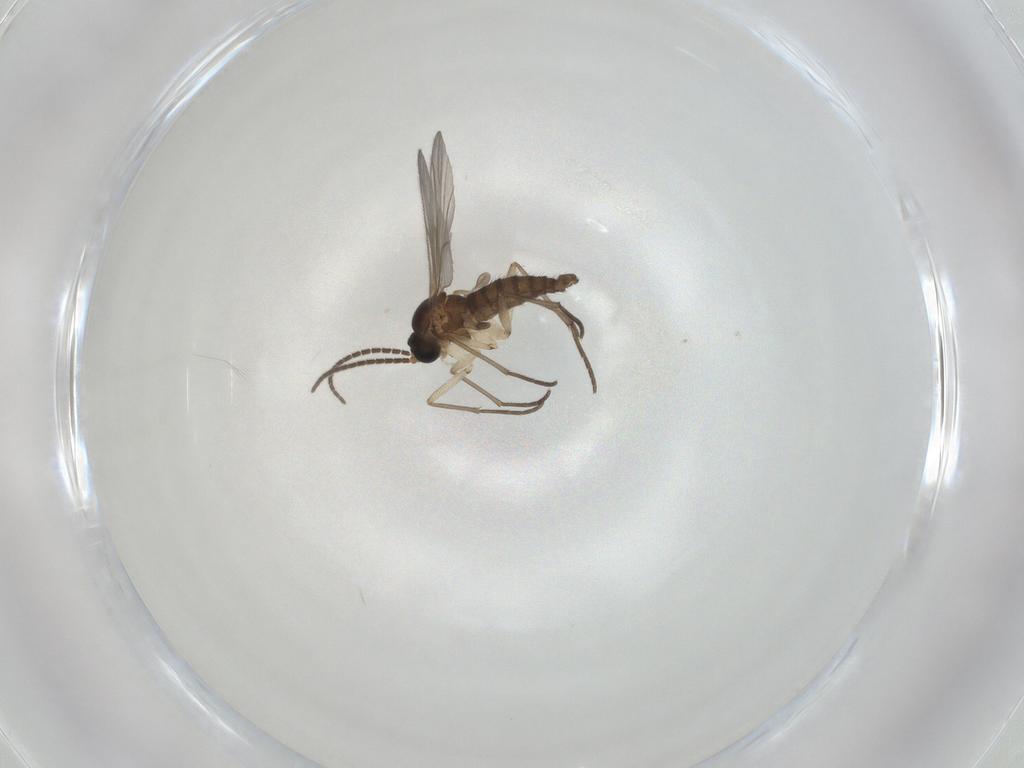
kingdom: Animalia
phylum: Arthropoda
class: Insecta
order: Diptera
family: Sciaridae
